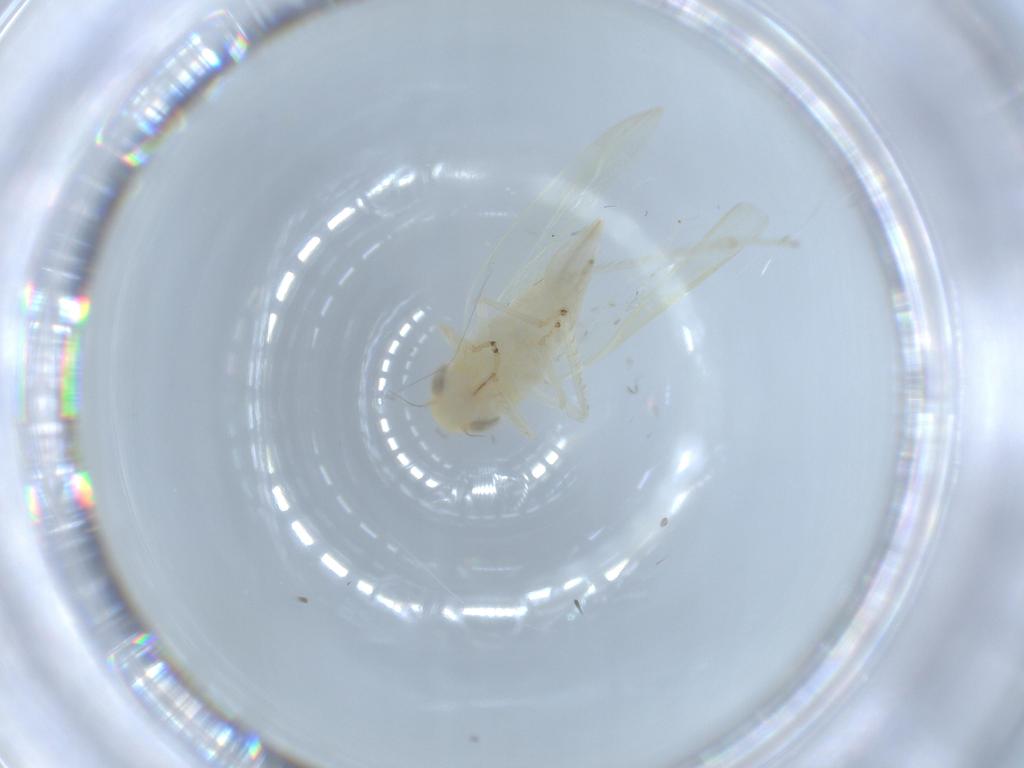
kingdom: Animalia
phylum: Arthropoda
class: Insecta
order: Hemiptera
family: Cicadellidae
